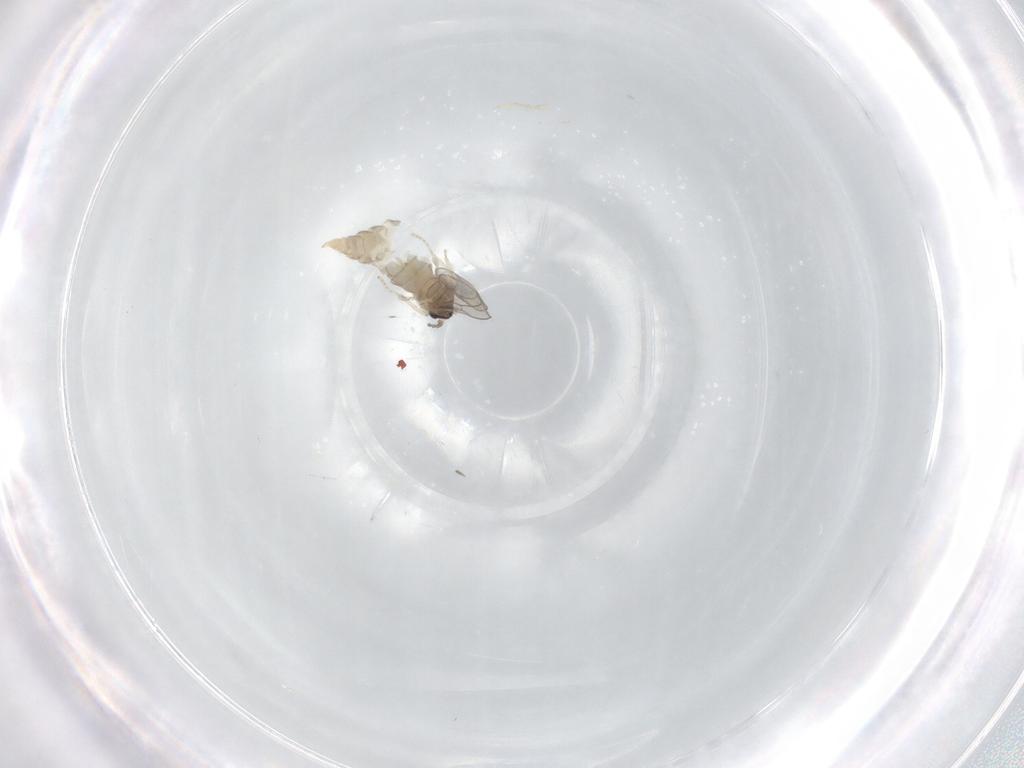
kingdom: Animalia
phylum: Arthropoda
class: Insecta
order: Diptera
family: Cecidomyiidae
